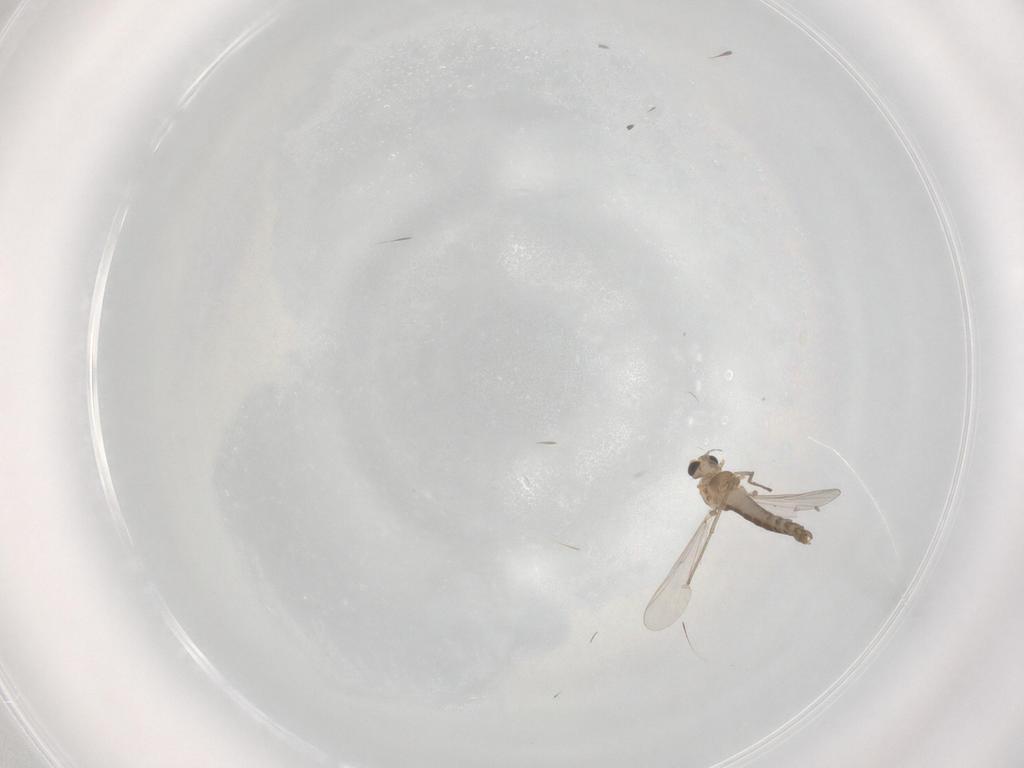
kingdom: Animalia
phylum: Arthropoda
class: Insecta
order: Diptera
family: Chironomidae
